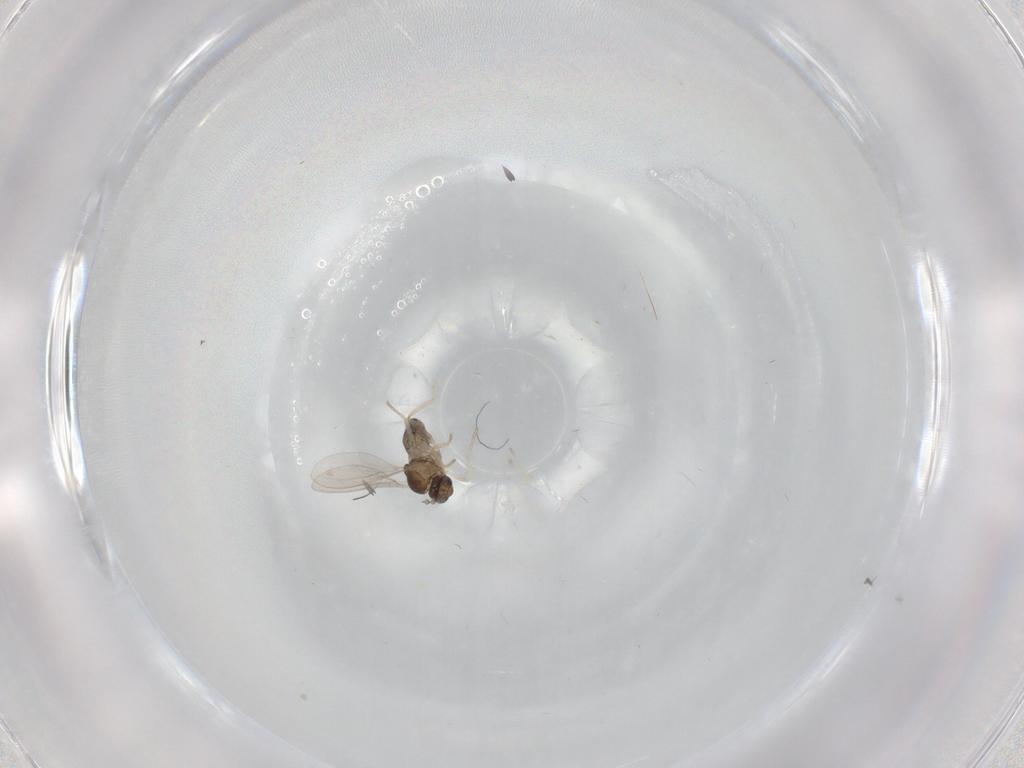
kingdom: Animalia
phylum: Arthropoda
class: Insecta
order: Diptera
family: Cecidomyiidae
